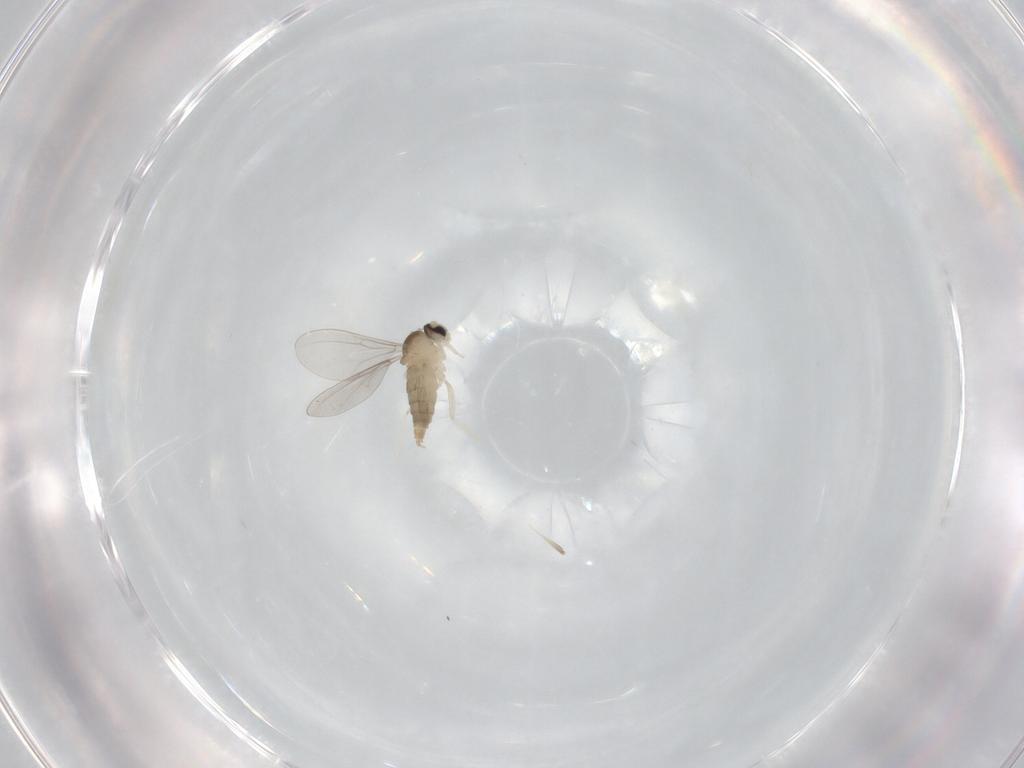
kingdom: Animalia
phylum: Arthropoda
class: Insecta
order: Diptera
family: Cecidomyiidae
